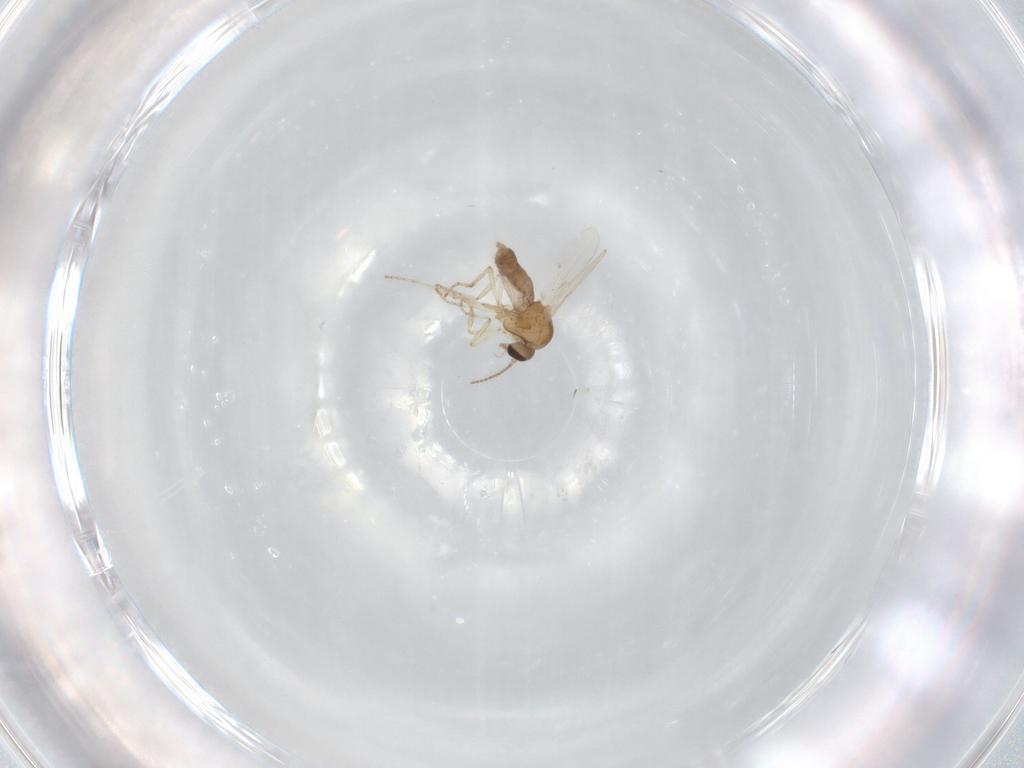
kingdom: Animalia
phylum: Arthropoda
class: Insecta
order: Diptera
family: Ceratopogonidae
